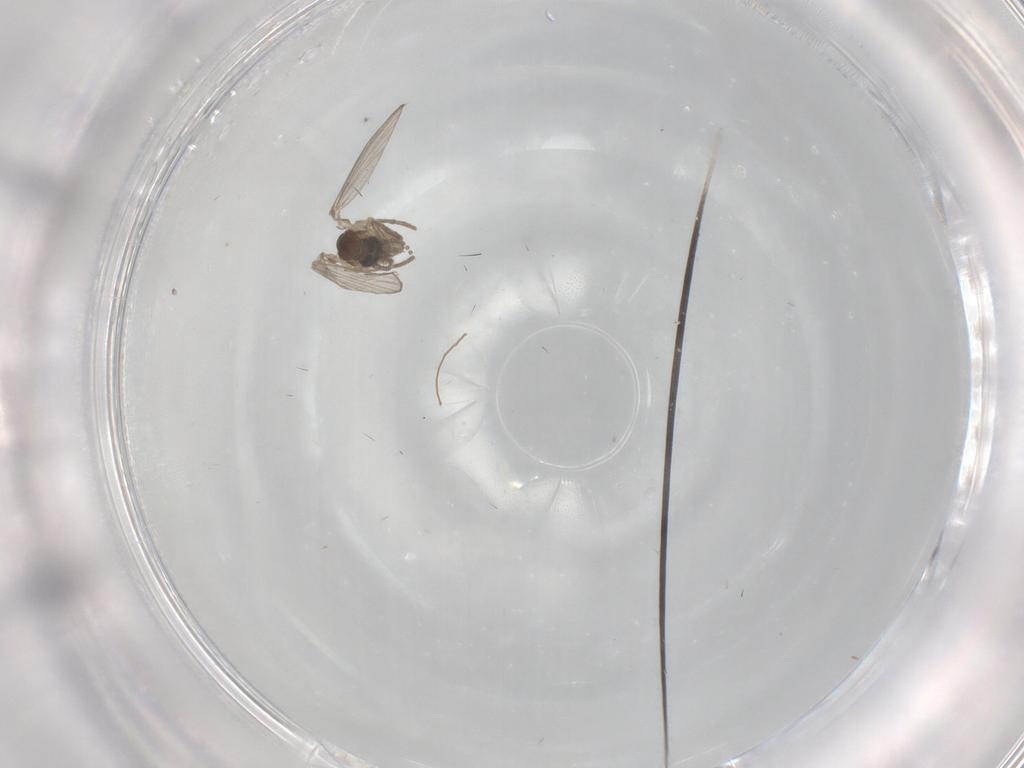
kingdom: Animalia
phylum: Arthropoda
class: Insecta
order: Diptera
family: Psychodidae
